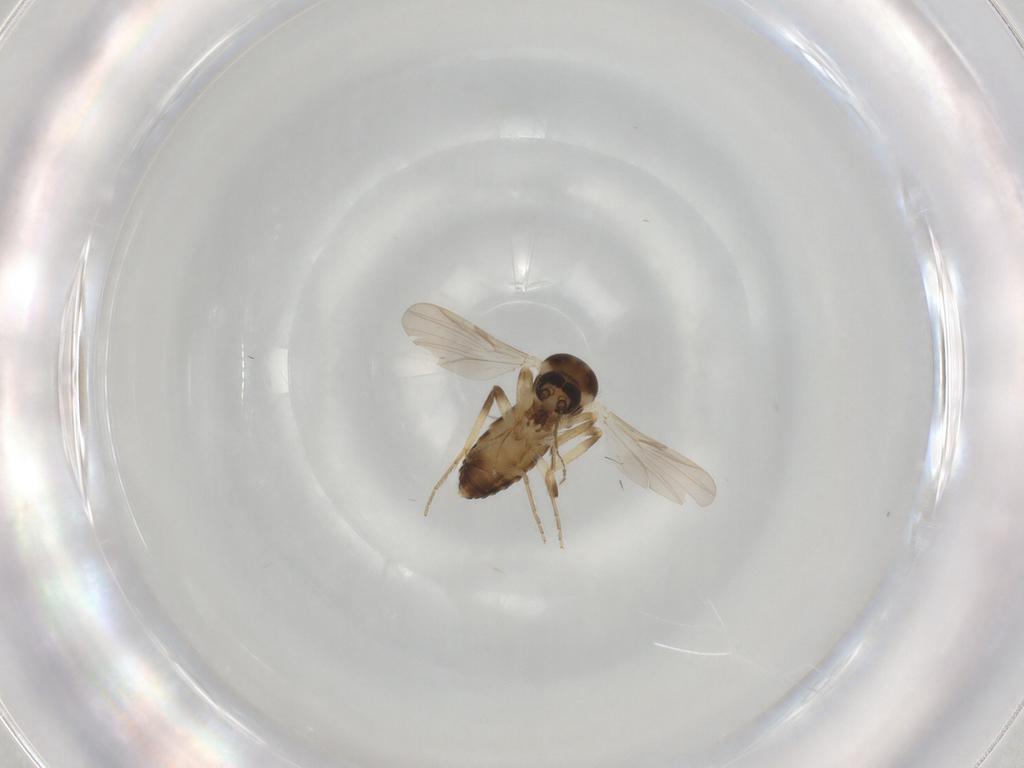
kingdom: Animalia
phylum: Arthropoda
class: Insecta
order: Diptera
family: Ceratopogonidae
